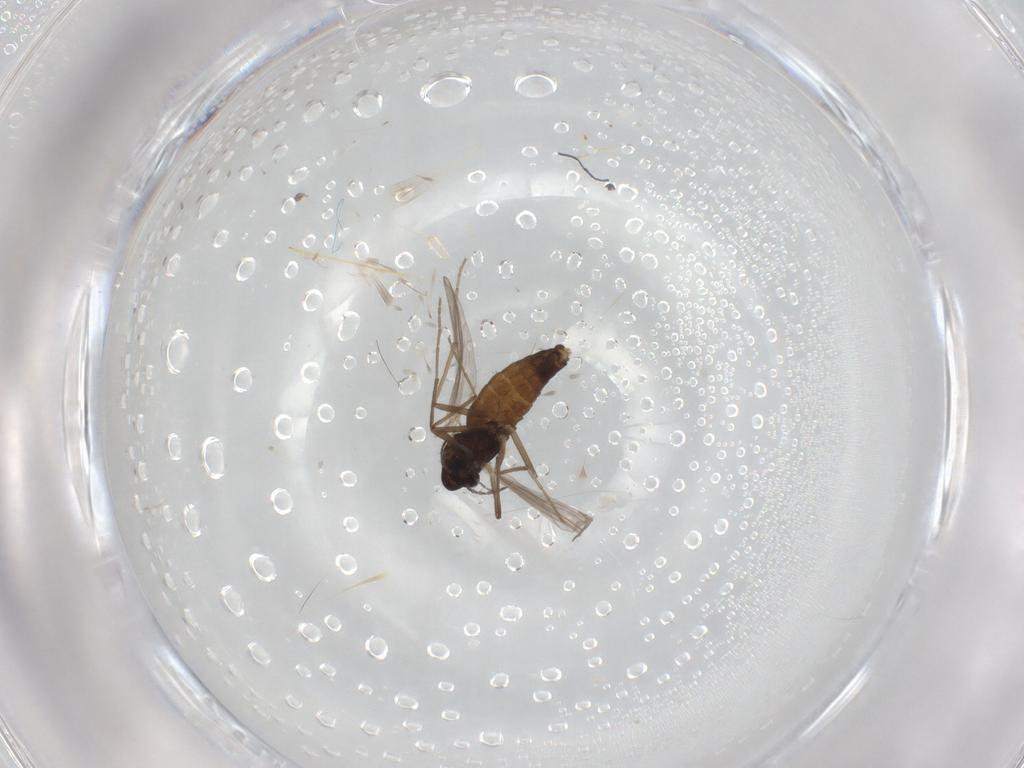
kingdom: Animalia
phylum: Arthropoda
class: Insecta
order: Diptera
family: Chironomidae
